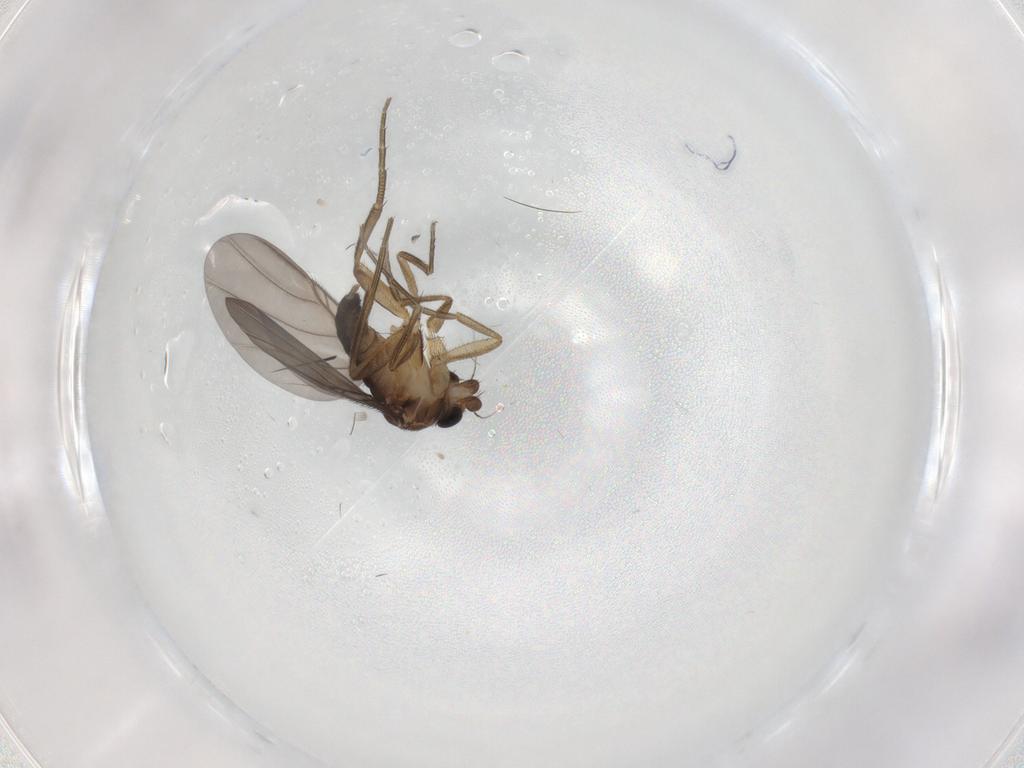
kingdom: Animalia
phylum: Arthropoda
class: Insecta
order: Diptera
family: Phoridae
